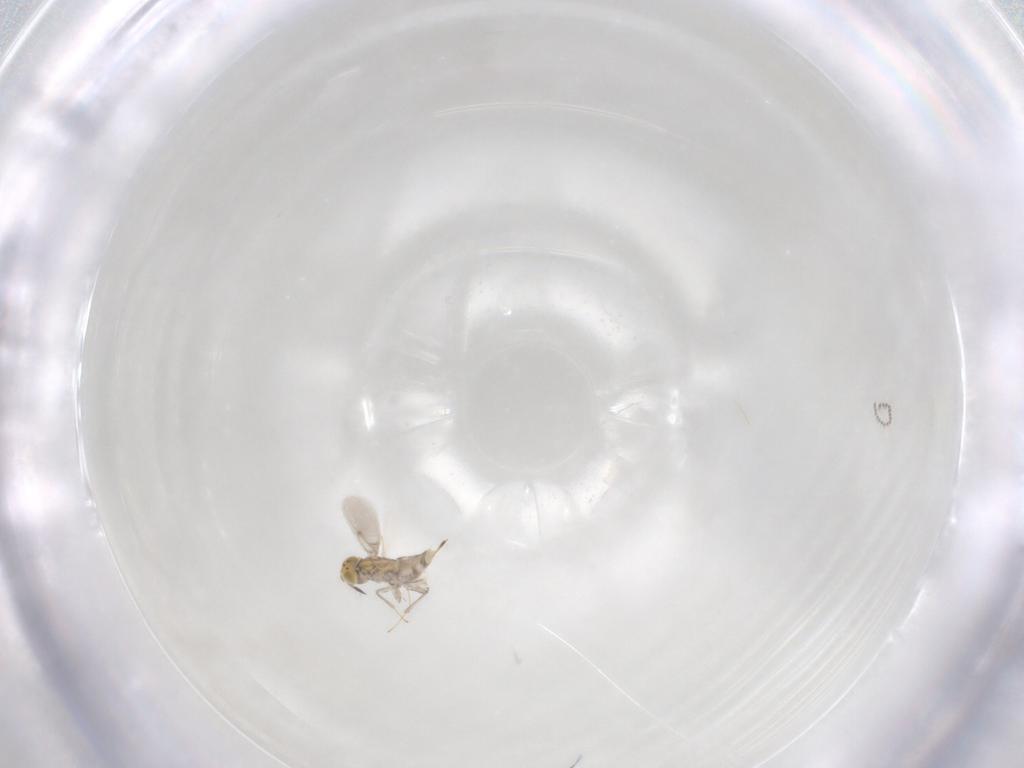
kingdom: Animalia
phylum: Arthropoda
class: Insecta
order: Hymenoptera
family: Aphelinidae
